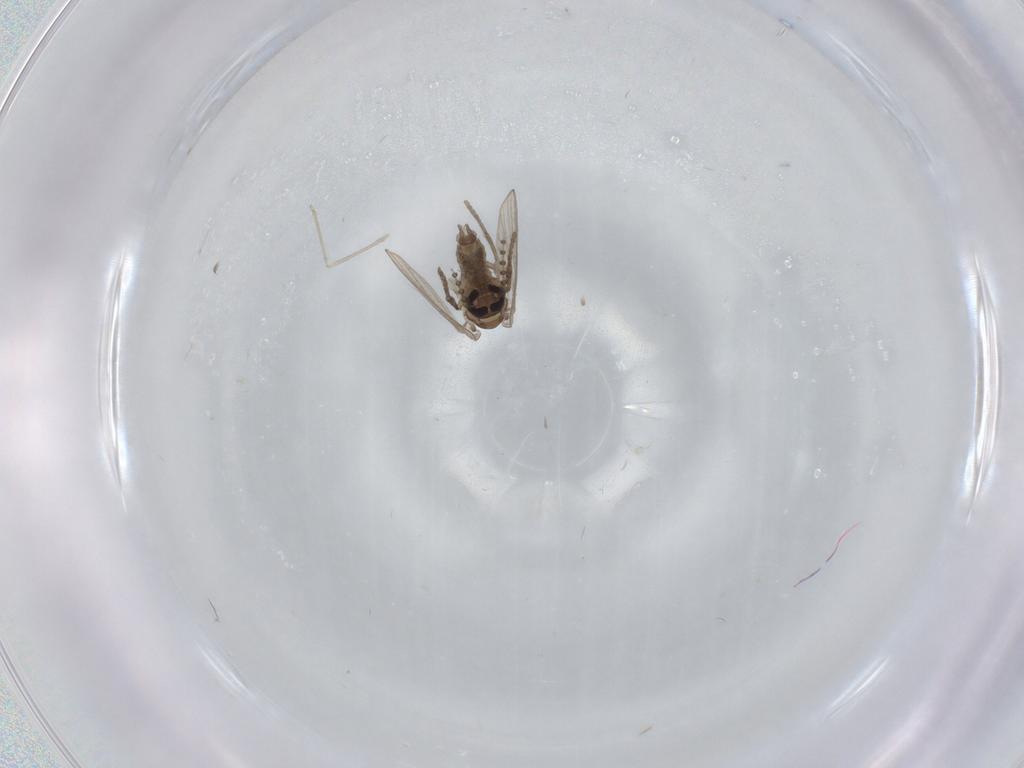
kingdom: Animalia
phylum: Arthropoda
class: Insecta
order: Diptera
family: Psychodidae
